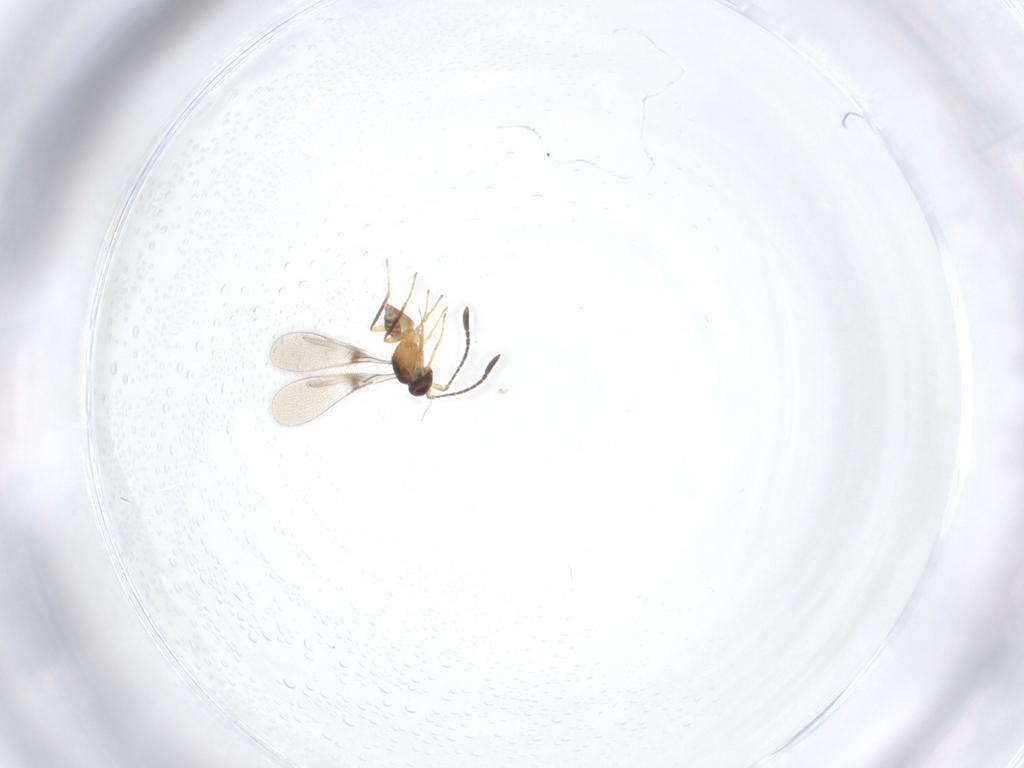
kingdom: Animalia
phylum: Arthropoda
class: Insecta
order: Hymenoptera
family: Mymaridae
